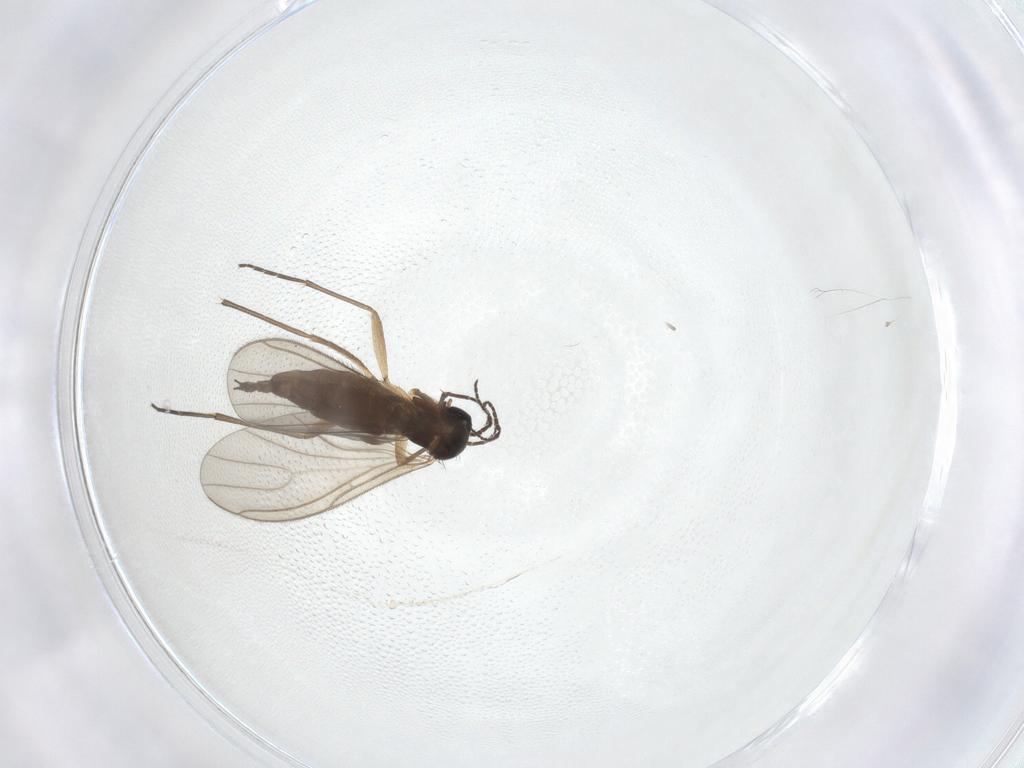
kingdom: Animalia
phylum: Arthropoda
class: Insecta
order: Diptera
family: Sciaridae
